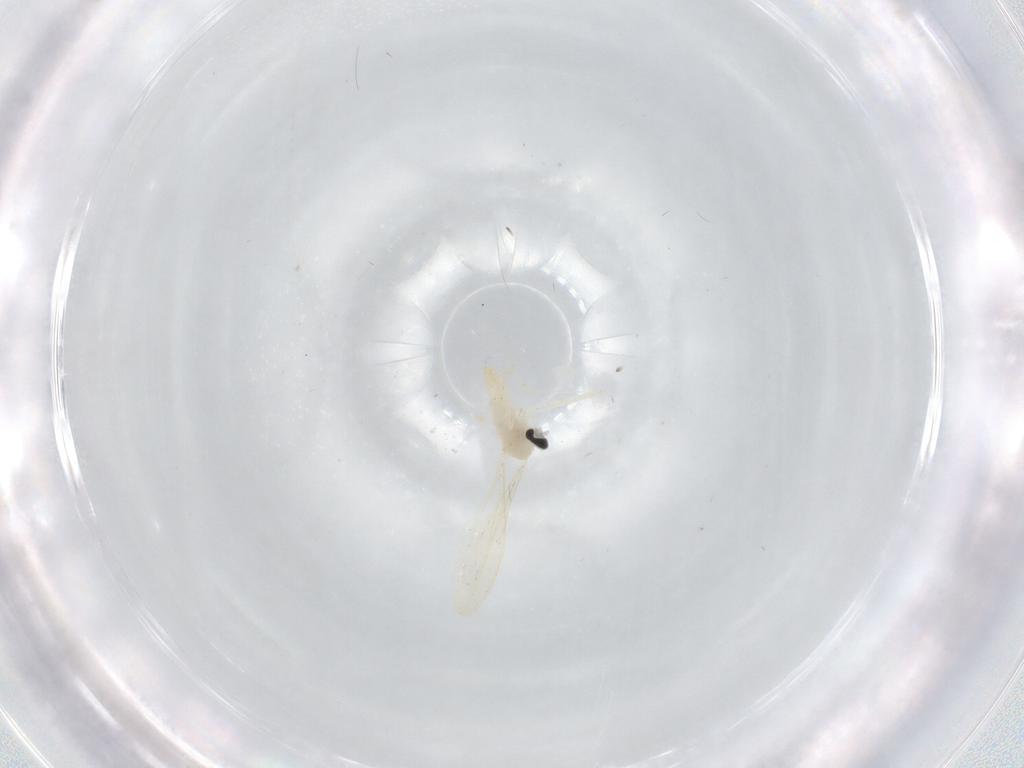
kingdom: Animalia
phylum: Arthropoda
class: Insecta
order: Diptera
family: Cecidomyiidae
